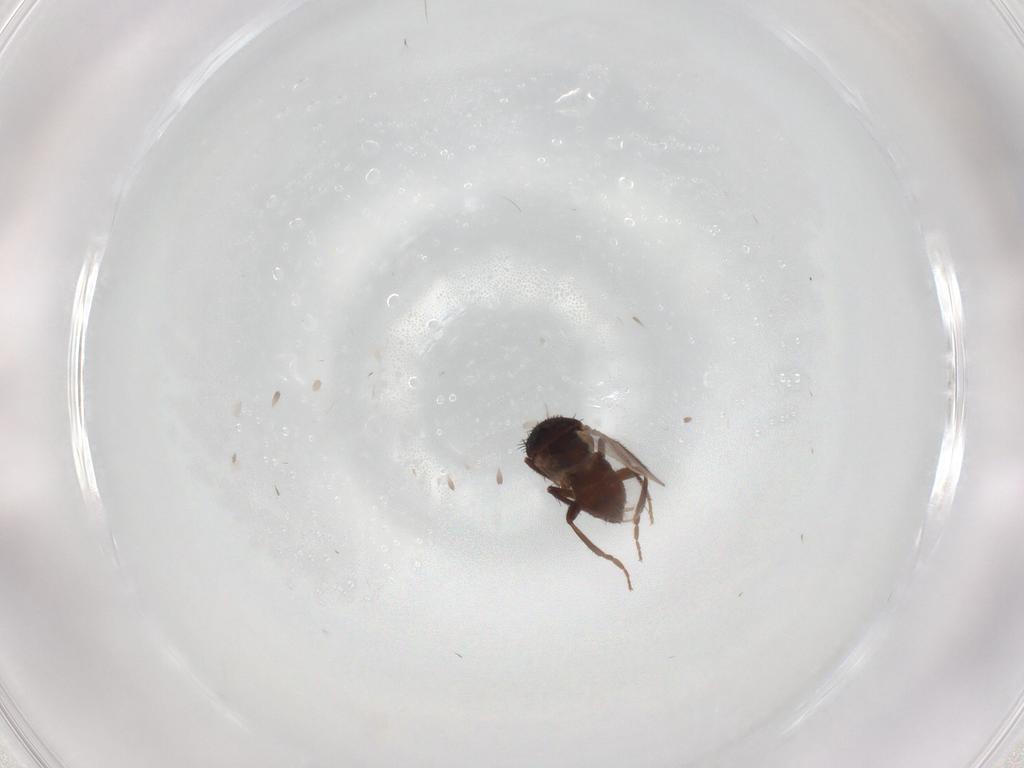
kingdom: Animalia
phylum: Arthropoda
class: Insecta
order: Diptera
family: Sphaeroceridae
